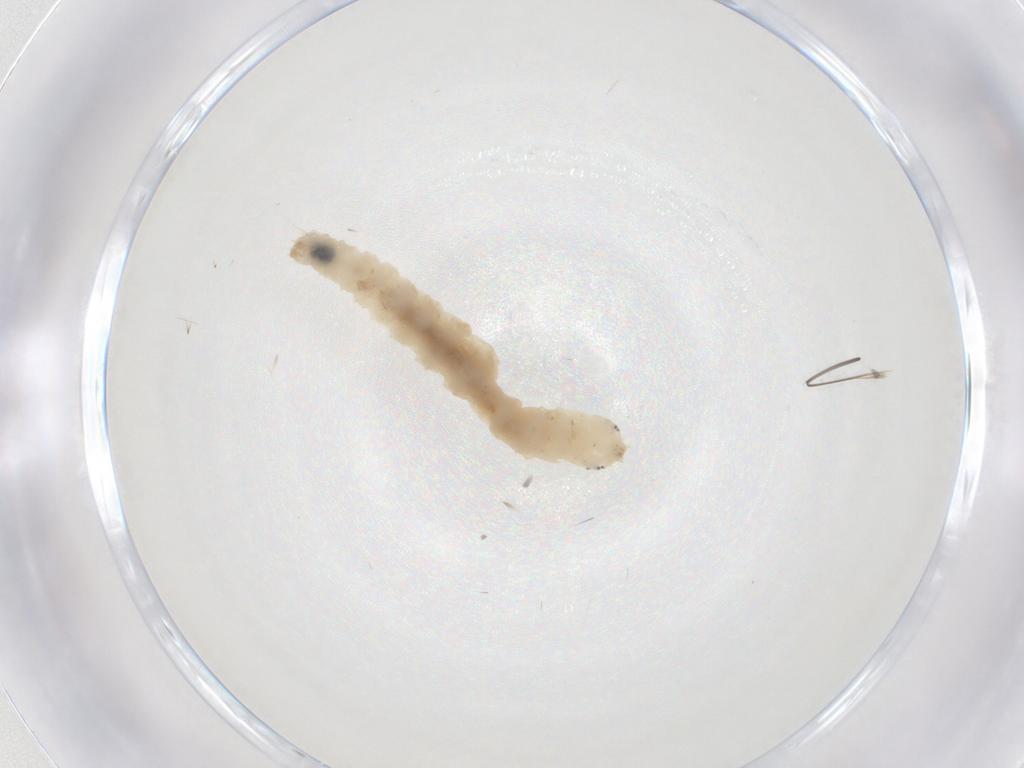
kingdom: Animalia
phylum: Arthropoda
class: Insecta
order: Lepidoptera
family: Erebidae
